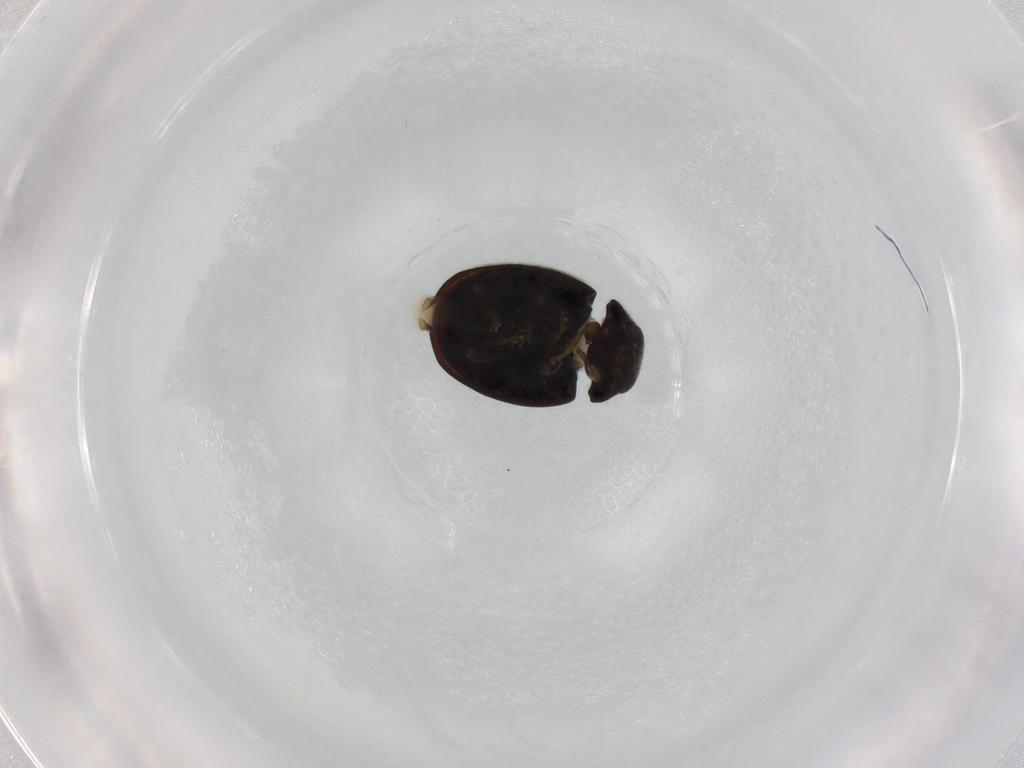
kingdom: Animalia
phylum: Arthropoda
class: Insecta
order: Coleoptera
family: Coccinellidae
